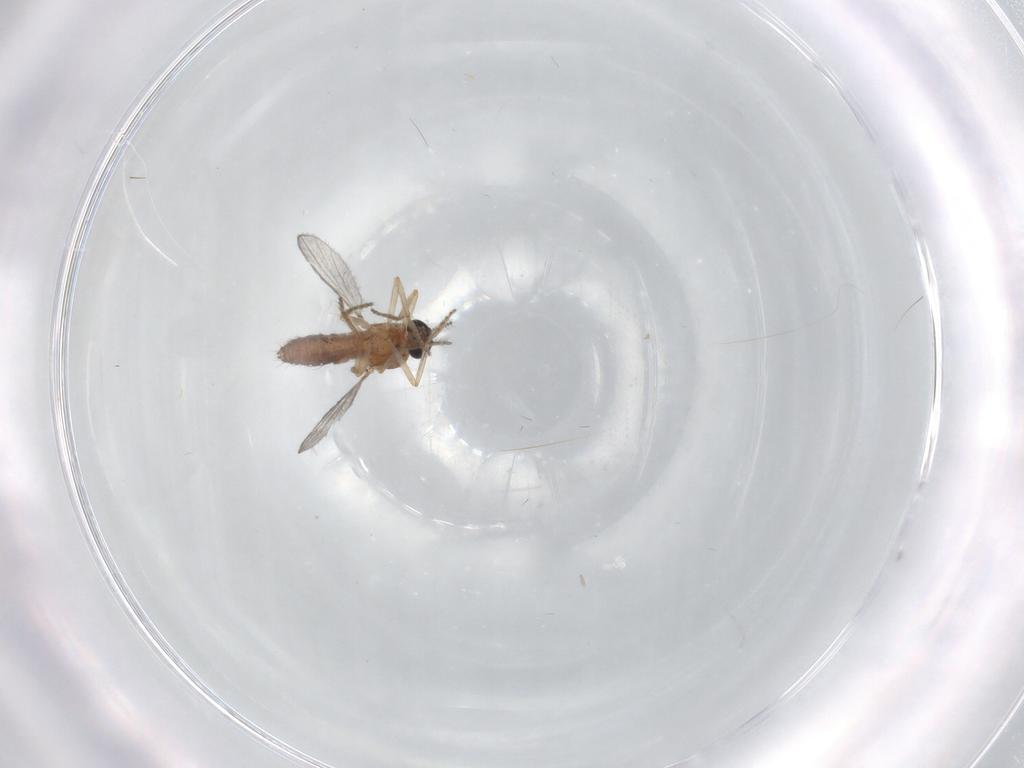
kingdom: Animalia
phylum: Arthropoda
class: Insecta
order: Diptera
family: Ceratopogonidae
